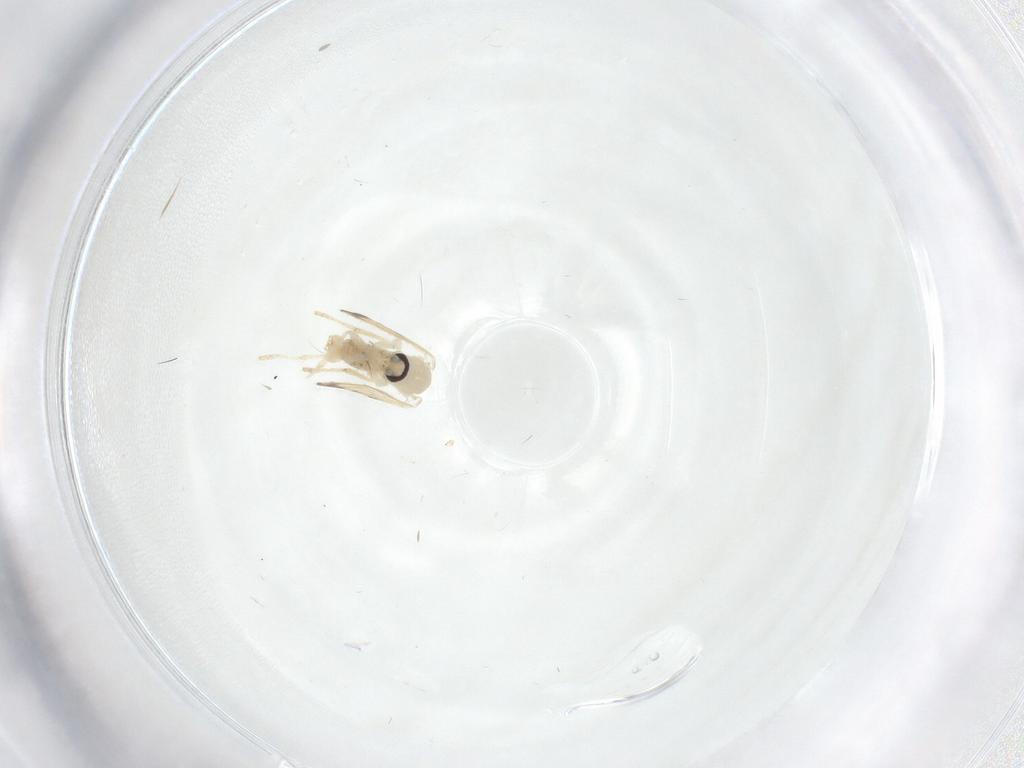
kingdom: Animalia
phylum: Arthropoda
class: Insecta
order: Diptera
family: Psychodidae
